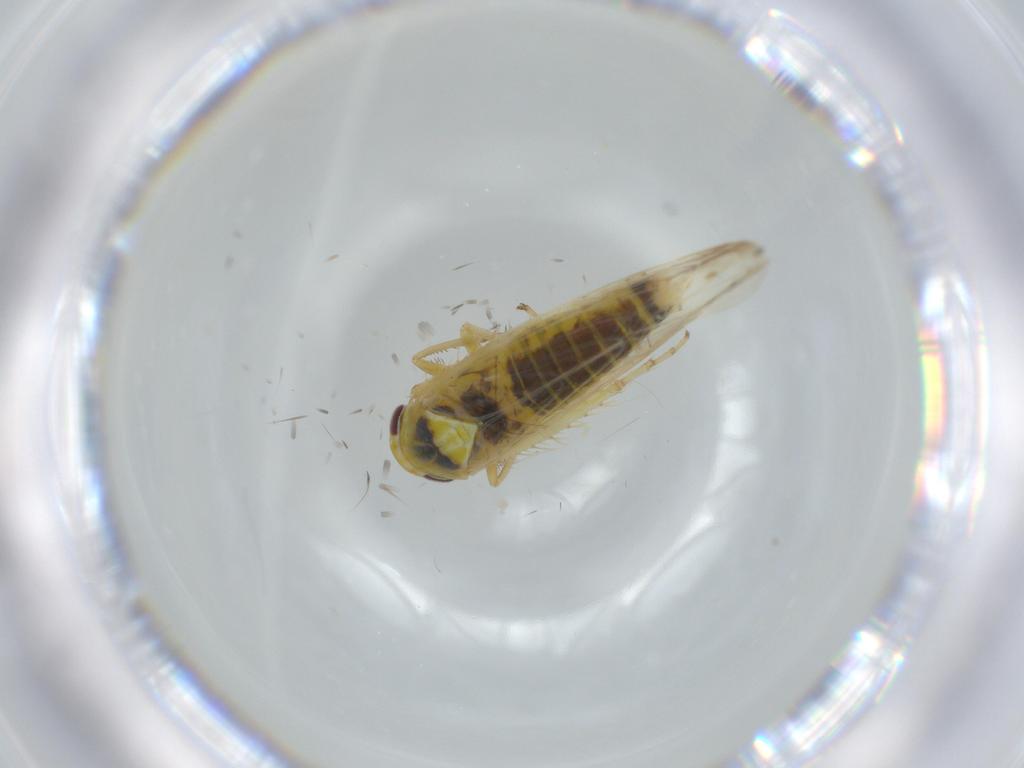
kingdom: Animalia
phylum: Arthropoda
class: Insecta
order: Hemiptera
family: Cicadellidae
